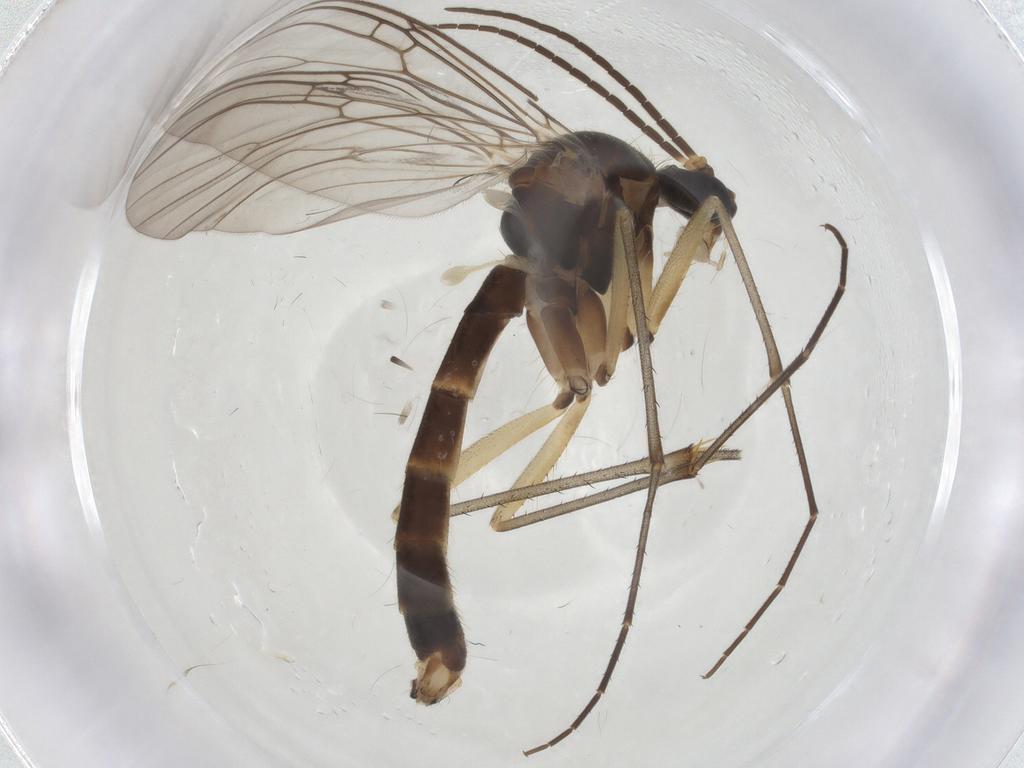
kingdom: Animalia
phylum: Arthropoda
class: Insecta
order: Diptera
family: Mycetophilidae
